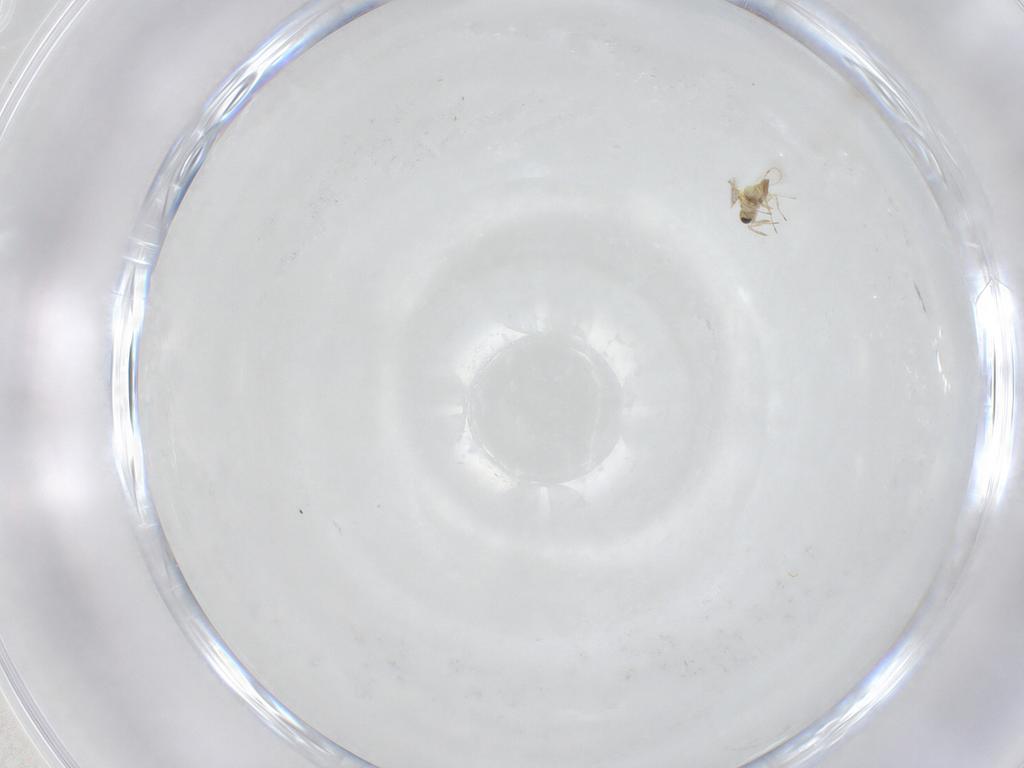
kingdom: Animalia
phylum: Arthropoda
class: Insecta
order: Hymenoptera
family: Trichogrammatidae
